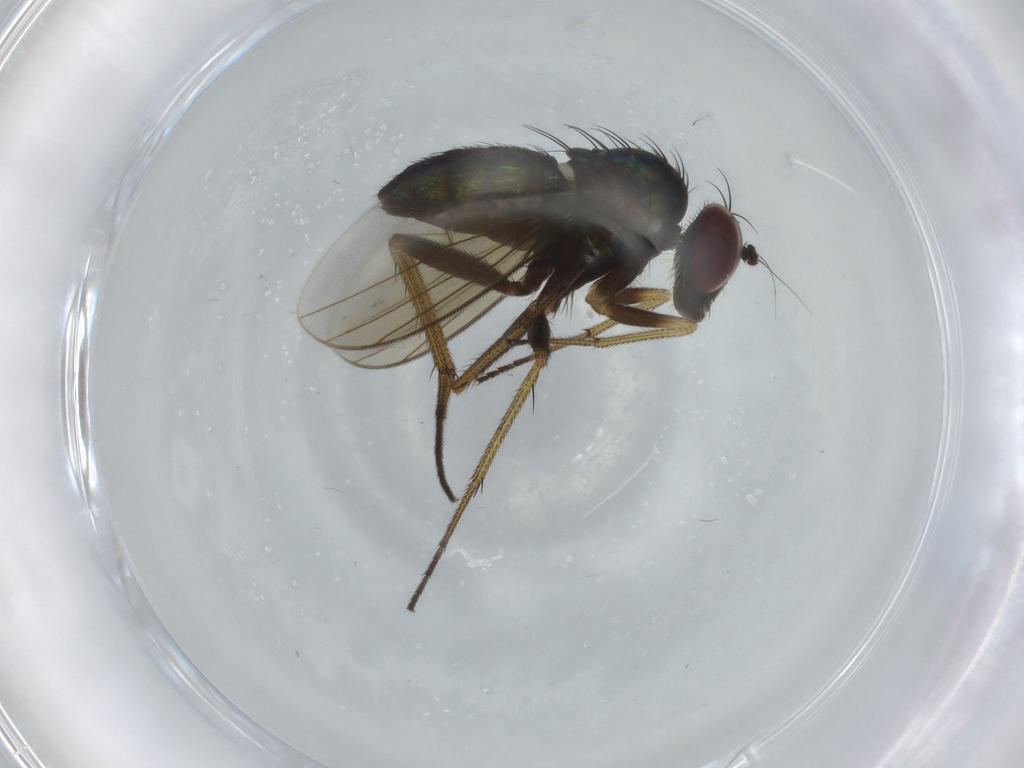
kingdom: Animalia
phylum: Arthropoda
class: Insecta
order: Diptera
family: Dolichopodidae
